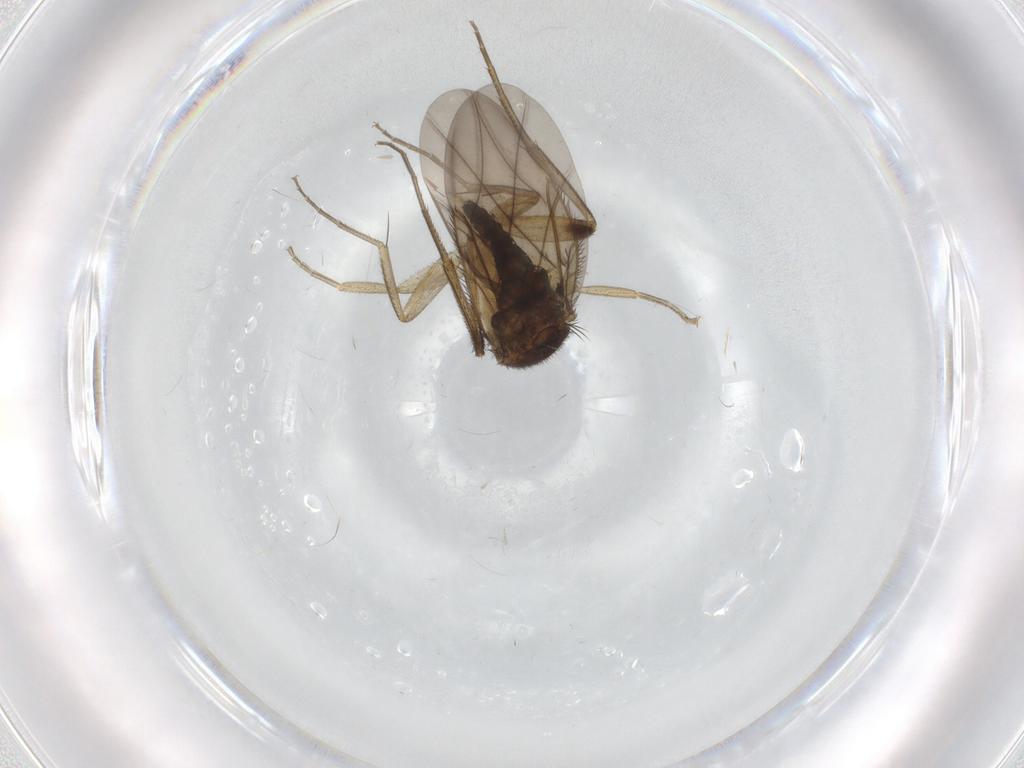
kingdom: Animalia
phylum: Arthropoda
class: Insecta
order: Diptera
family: Phoridae
